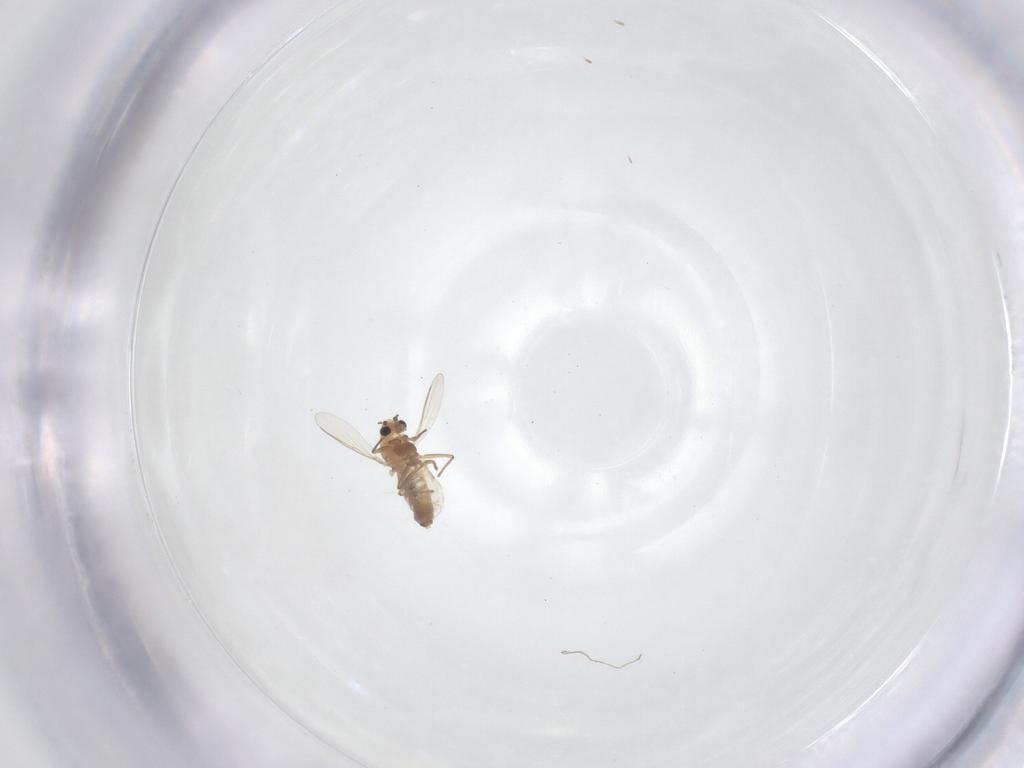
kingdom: Animalia
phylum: Arthropoda
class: Insecta
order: Diptera
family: Chironomidae
